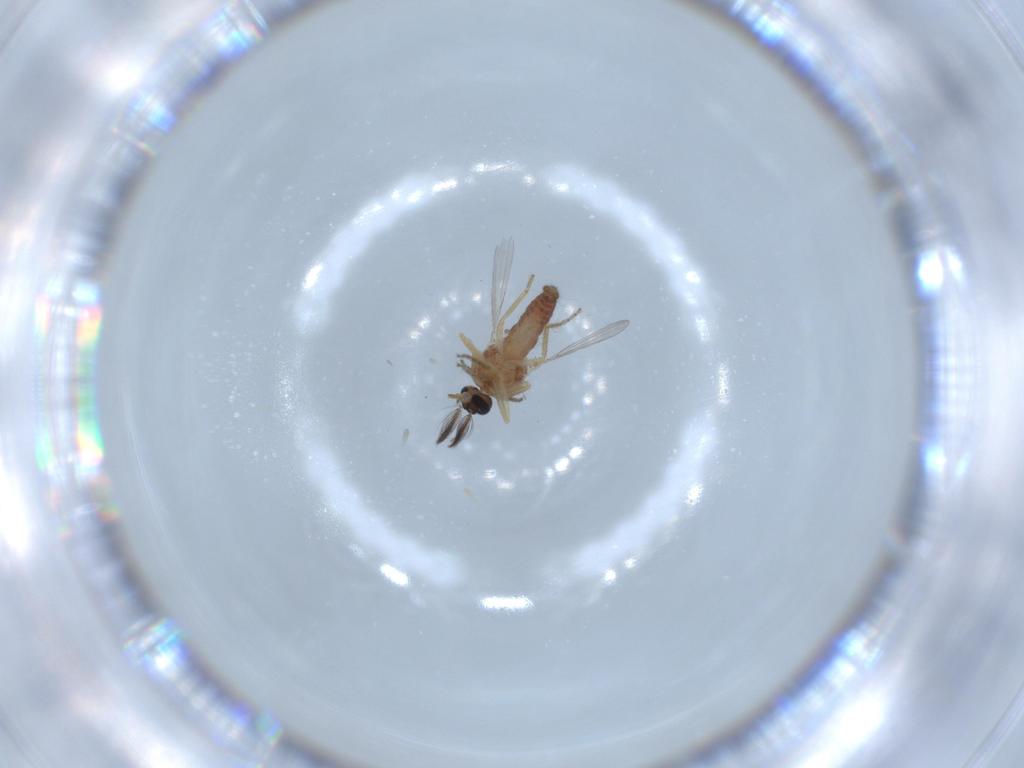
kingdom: Animalia
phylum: Arthropoda
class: Insecta
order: Diptera
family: Ceratopogonidae
